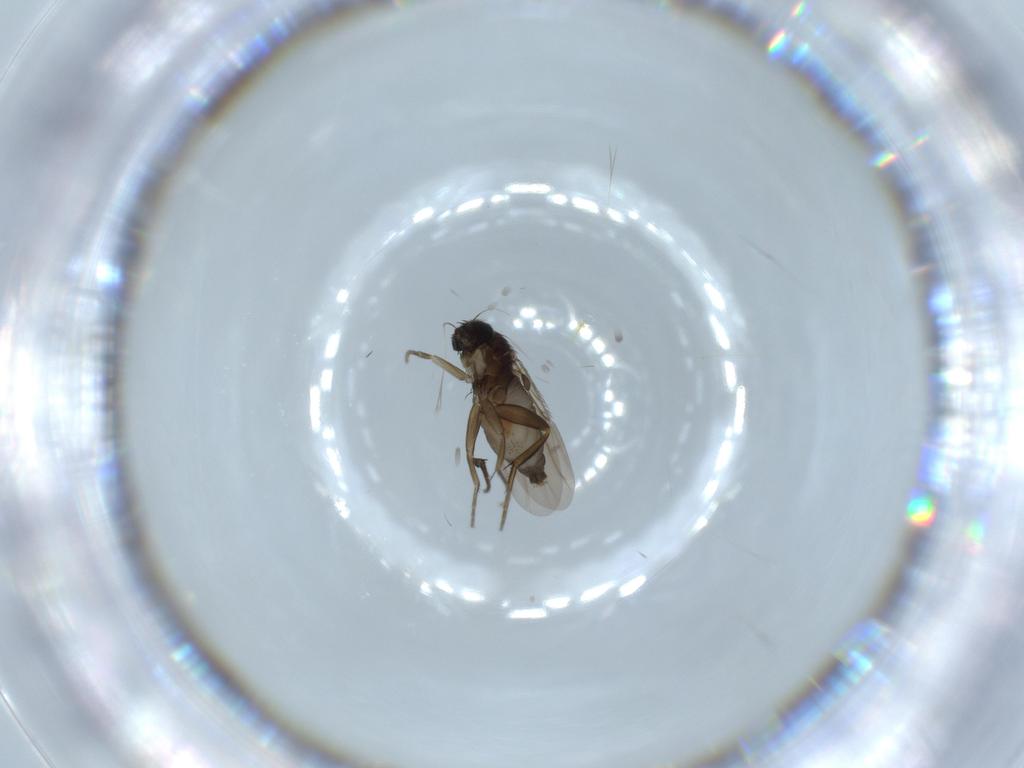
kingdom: Animalia
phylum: Arthropoda
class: Insecta
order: Diptera
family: Phoridae
